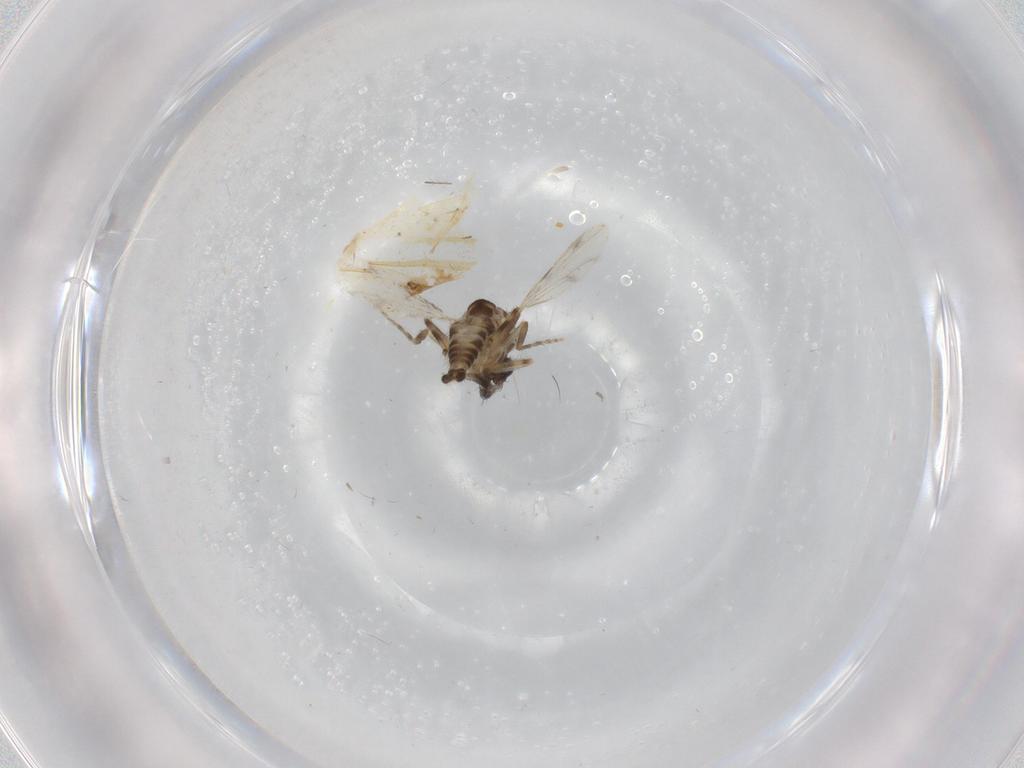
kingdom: Animalia
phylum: Arthropoda
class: Insecta
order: Diptera
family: Ceratopogonidae
